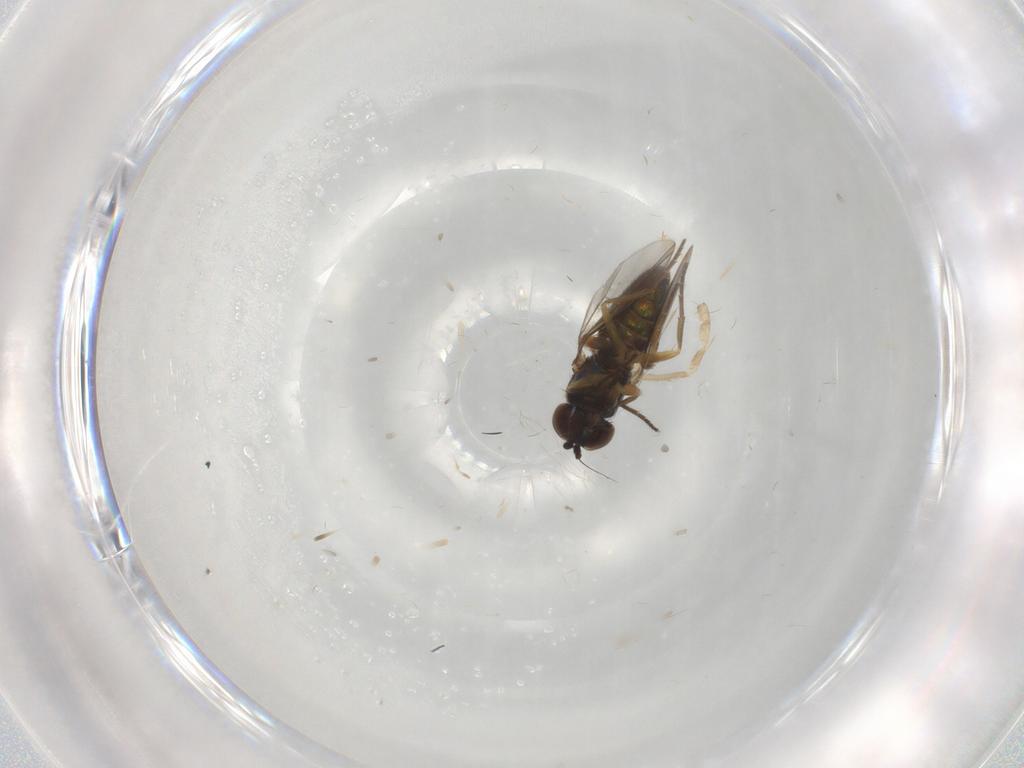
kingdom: Animalia
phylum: Arthropoda
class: Insecta
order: Diptera
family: Dolichopodidae
